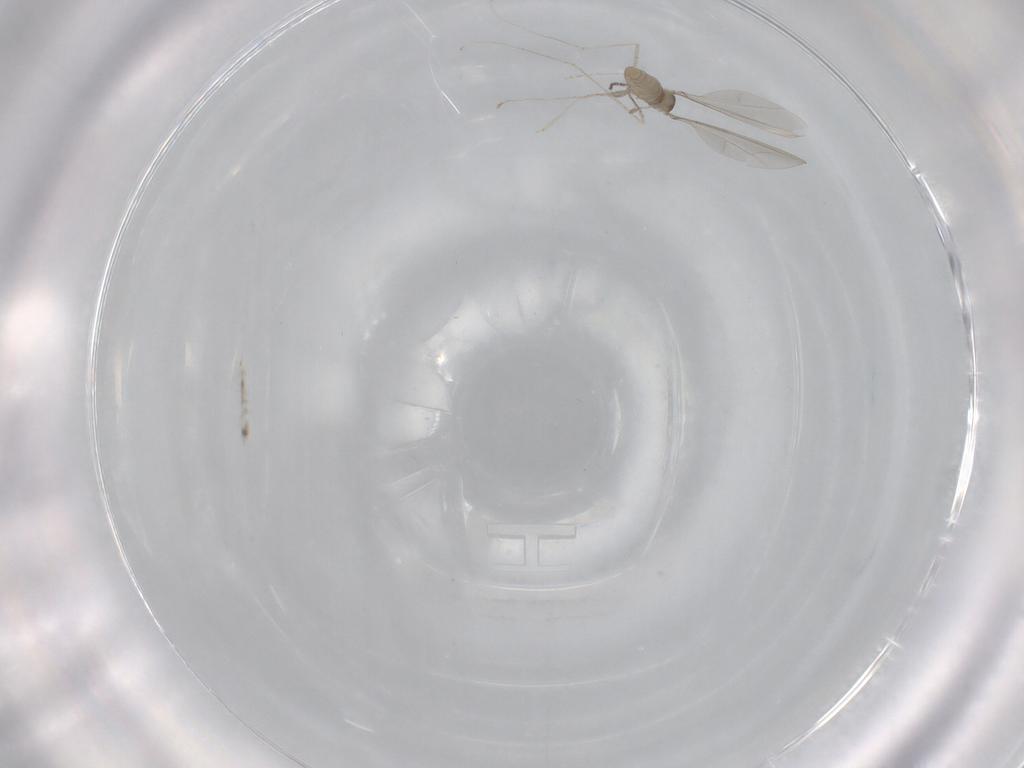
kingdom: Animalia
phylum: Arthropoda
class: Insecta
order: Diptera
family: Cecidomyiidae
